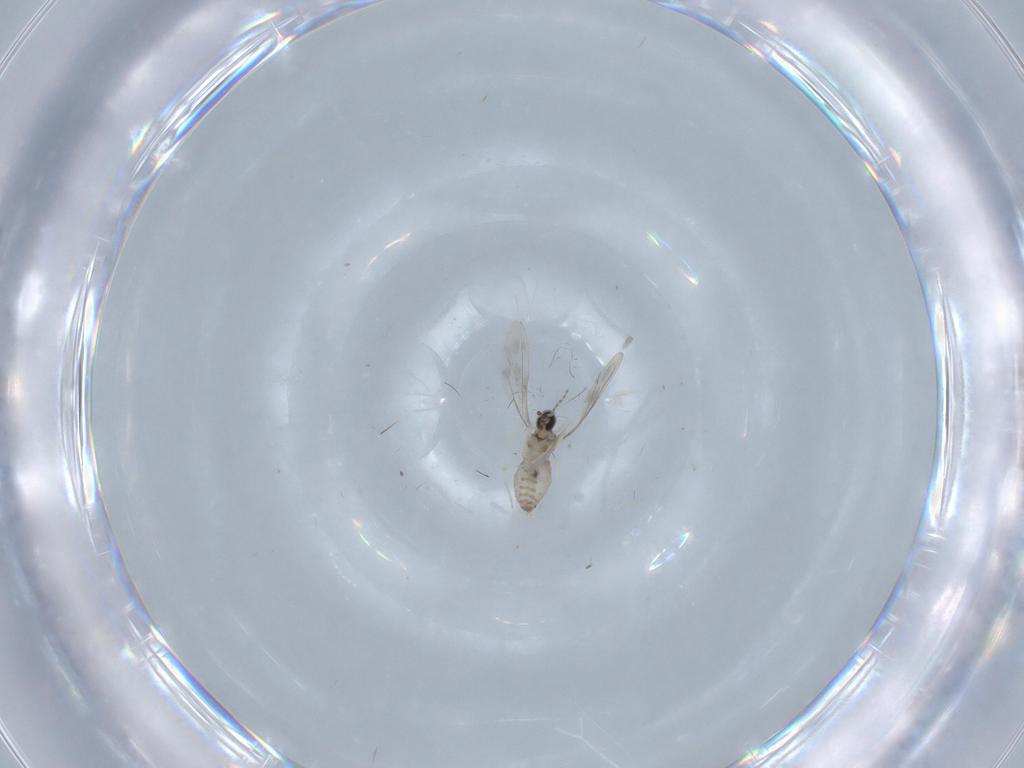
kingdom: Animalia
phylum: Arthropoda
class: Insecta
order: Diptera
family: Cecidomyiidae
